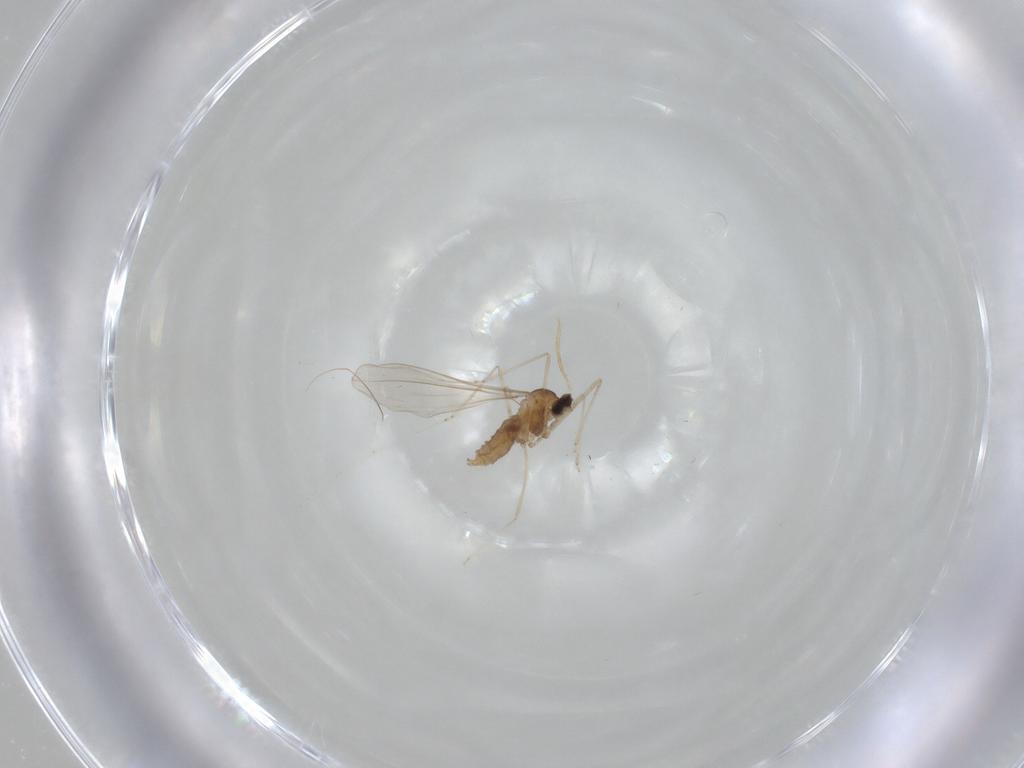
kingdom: Animalia
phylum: Arthropoda
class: Insecta
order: Diptera
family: Cecidomyiidae
